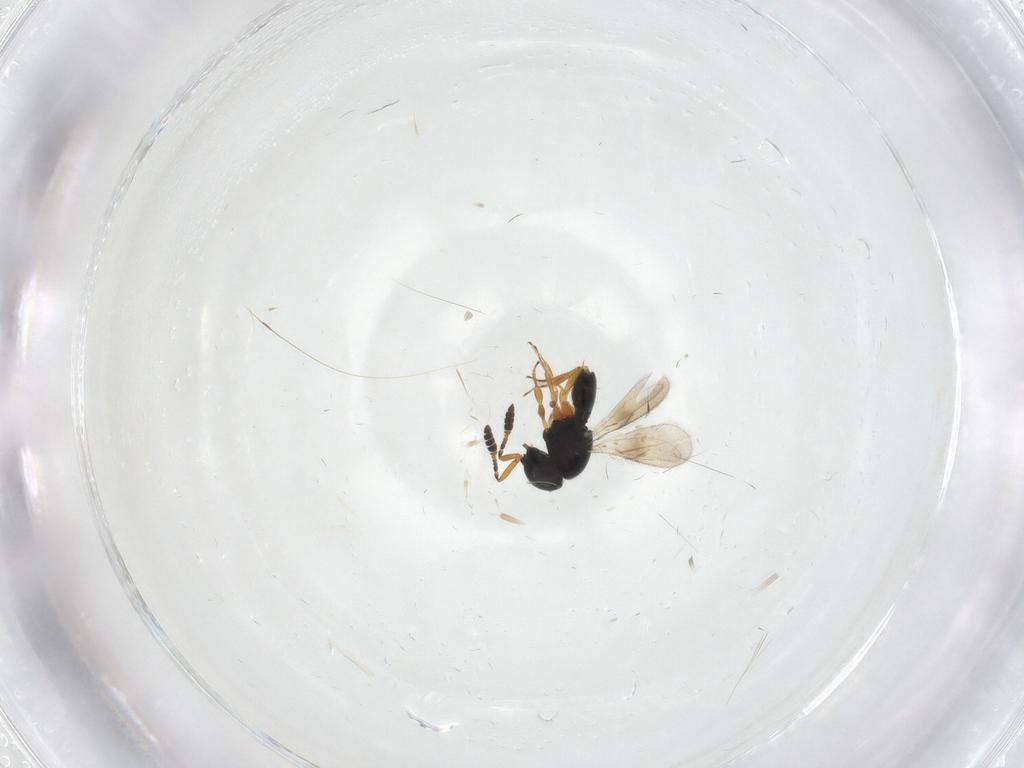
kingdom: Animalia
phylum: Arthropoda
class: Insecta
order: Hymenoptera
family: Scelionidae
